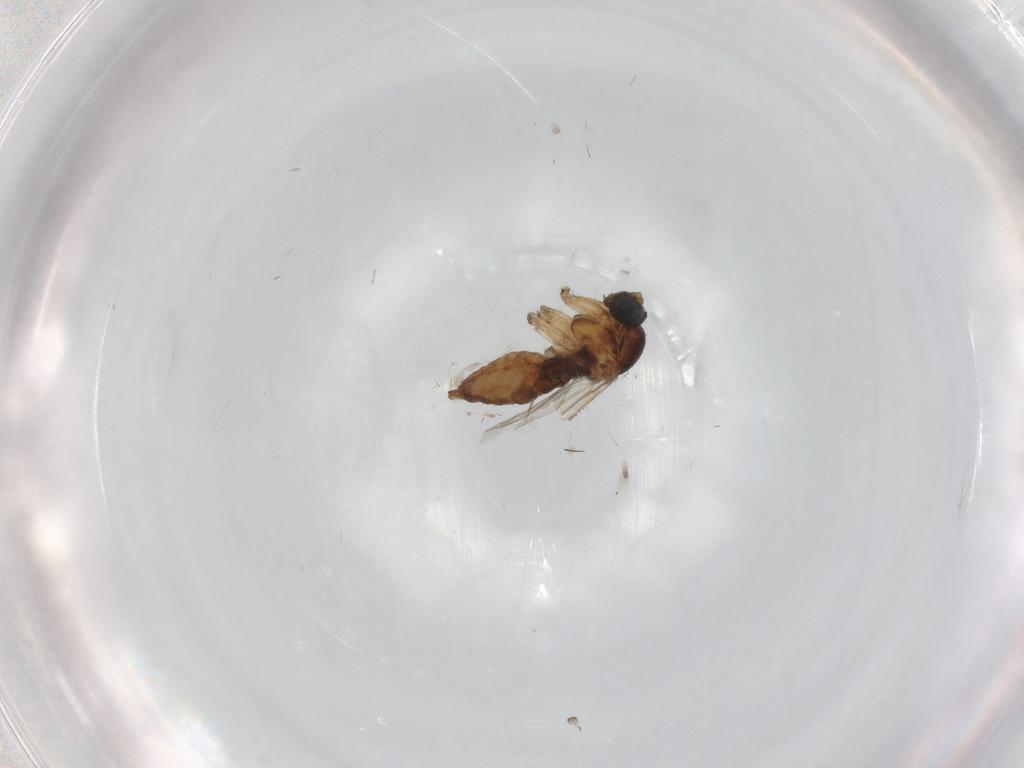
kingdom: Animalia
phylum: Arthropoda
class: Insecta
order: Diptera
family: Sciaridae
